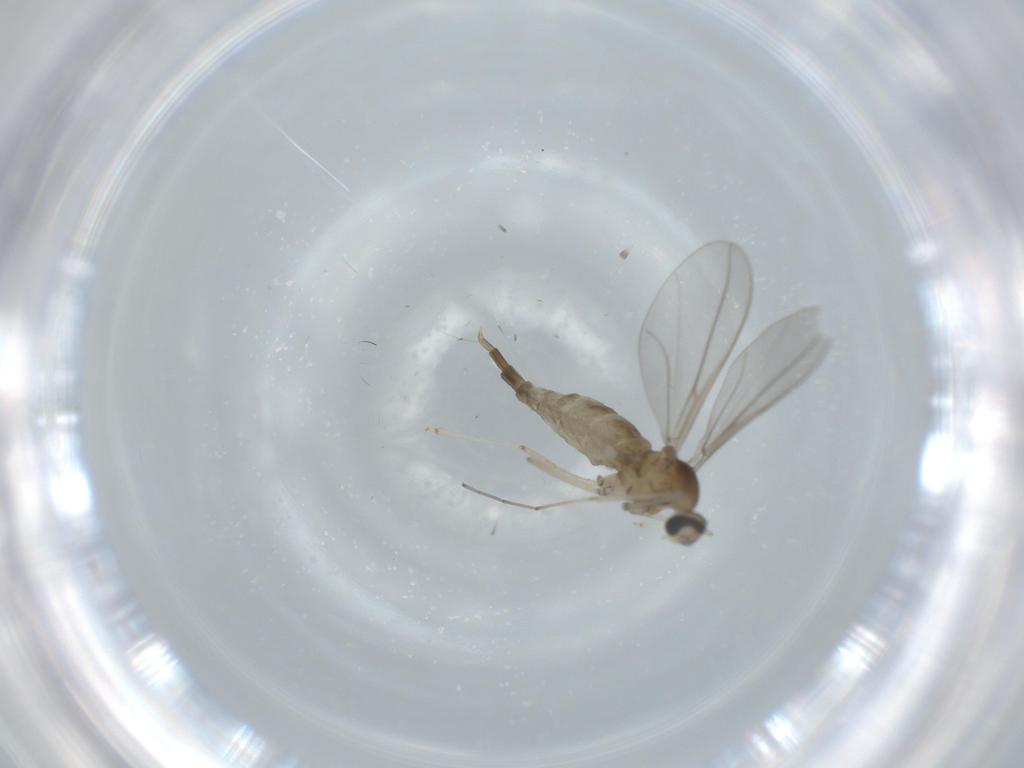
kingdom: Animalia
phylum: Arthropoda
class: Insecta
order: Diptera
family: Cecidomyiidae
